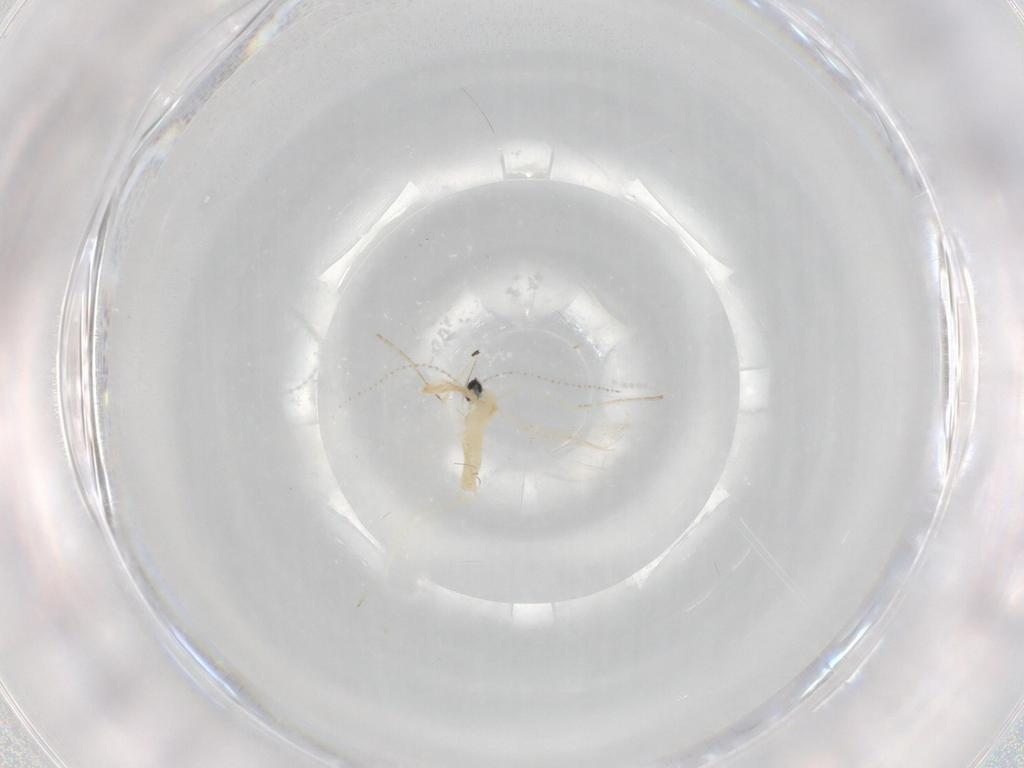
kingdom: Animalia
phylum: Arthropoda
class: Insecta
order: Diptera
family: Cecidomyiidae
